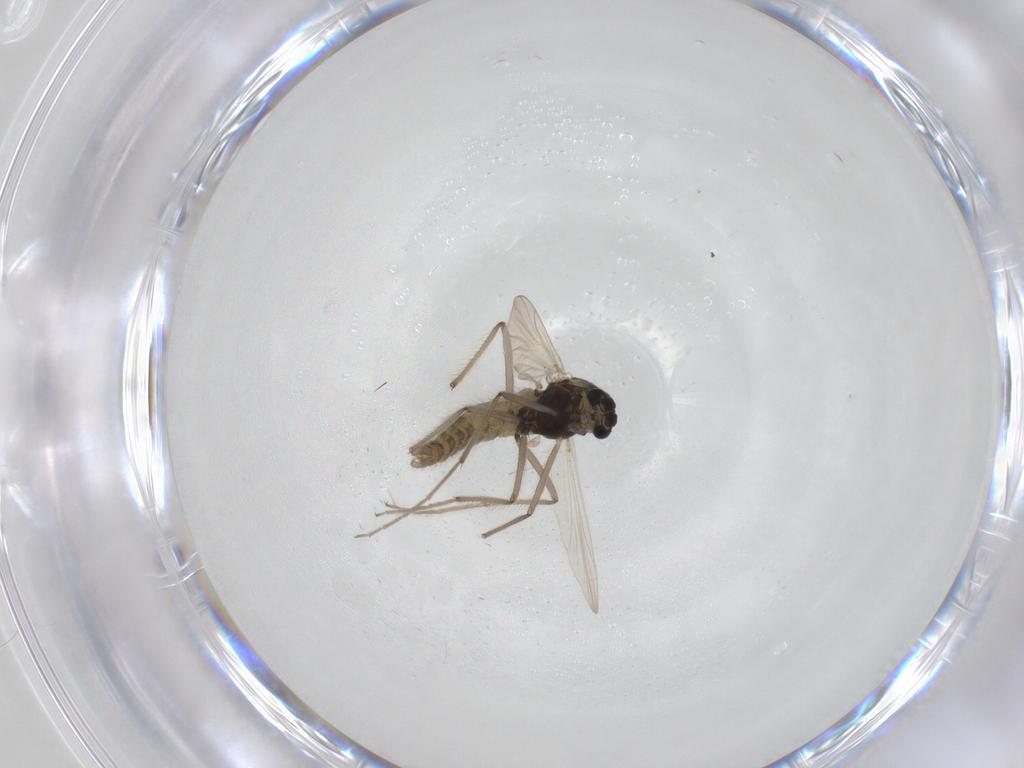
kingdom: Animalia
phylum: Arthropoda
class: Insecta
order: Diptera
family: Chironomidae
